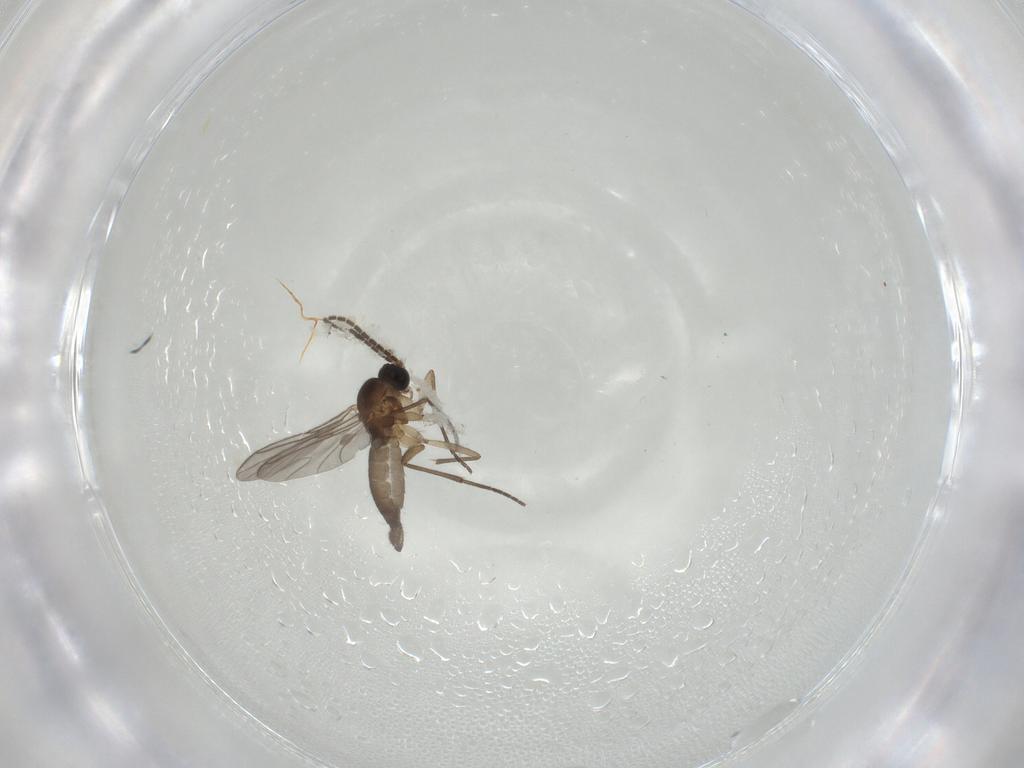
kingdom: Animalia
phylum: Arthropoda
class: Insecta
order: Diptera
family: Sciaridae
